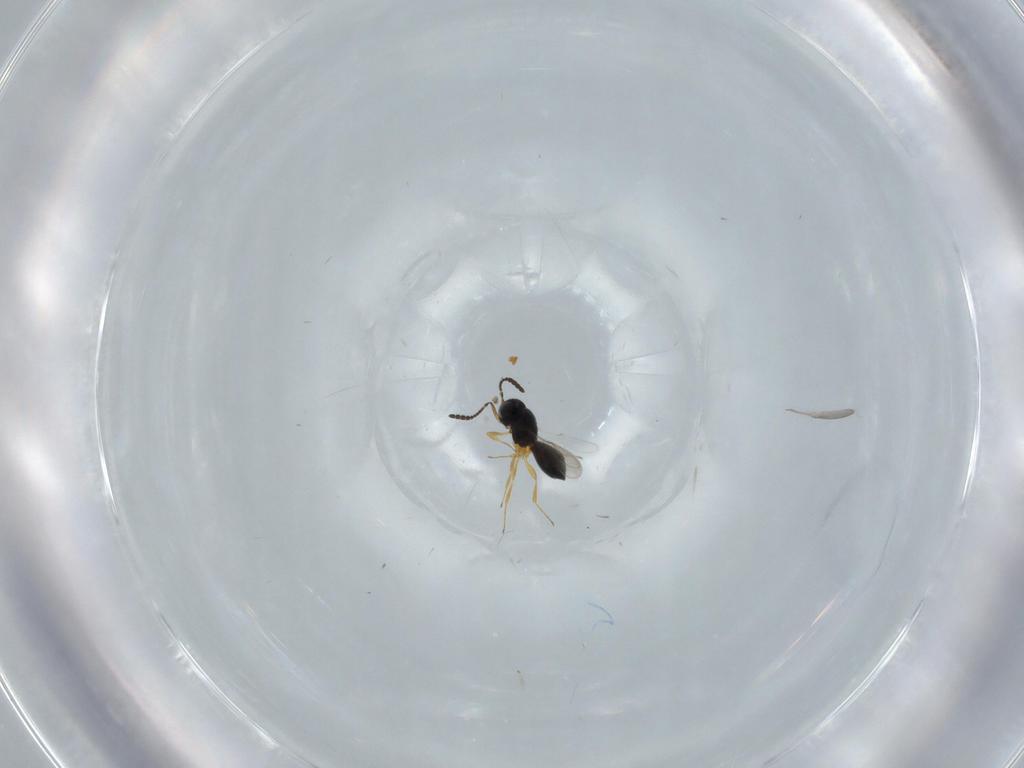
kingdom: Animalia
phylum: Arthropoda
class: Insecta
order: Hymenoptera
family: Scelionidae
